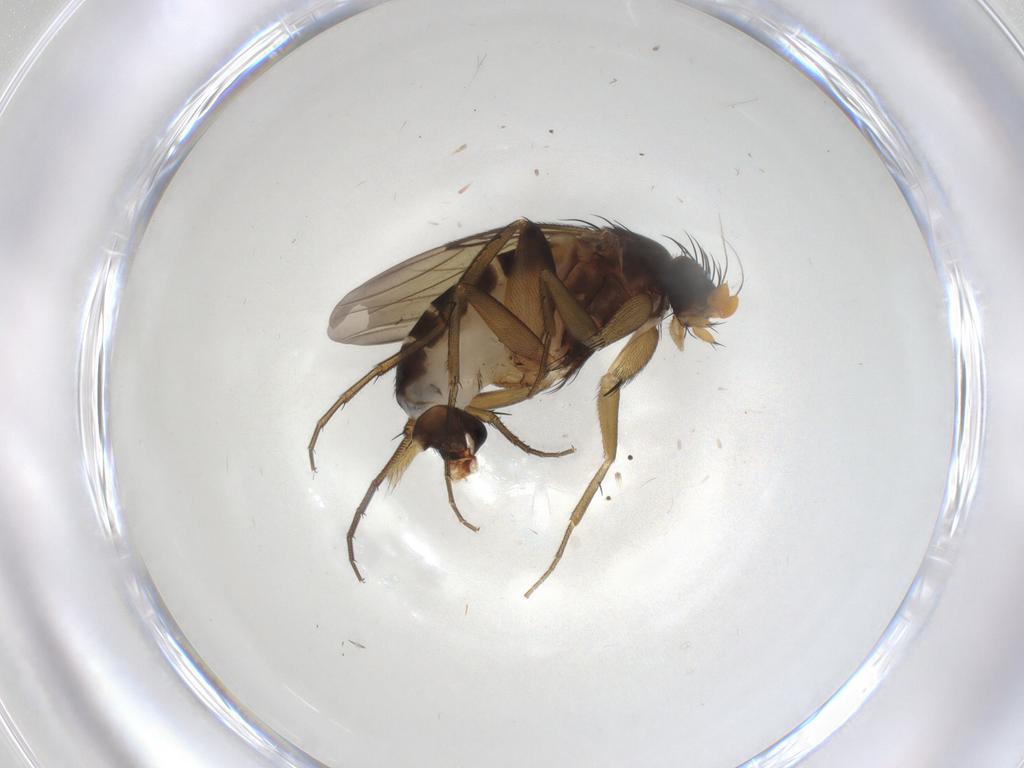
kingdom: Animalia
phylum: Arthropoda
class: Insecta
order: Diptera
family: Phoridae
